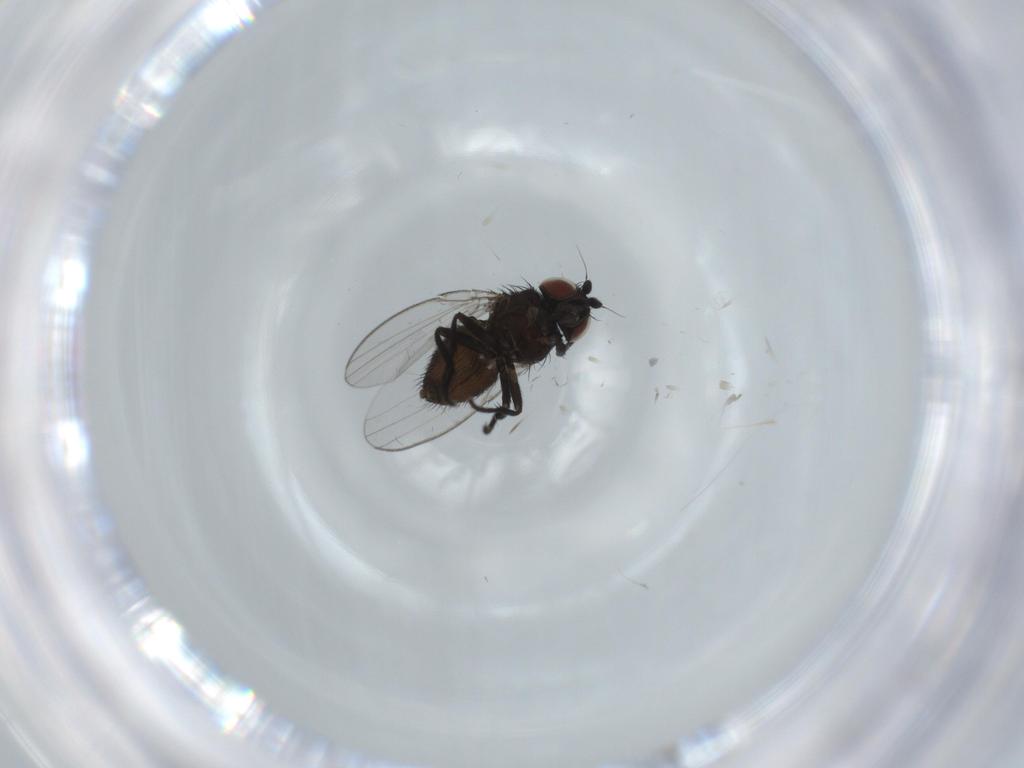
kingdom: Animalia
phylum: Arthropoda
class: Insecta
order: Diptera
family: Milichiidae
